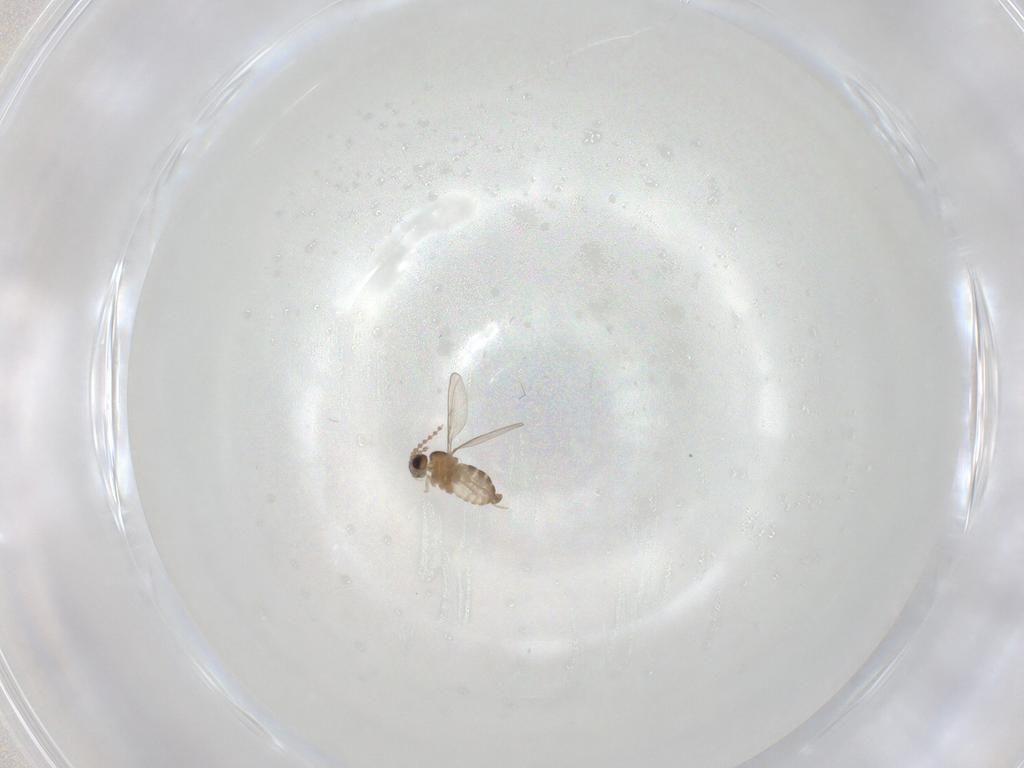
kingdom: Animalia
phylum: Arthropoda
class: Insecta
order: Diptera
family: Cecidomyiidae
